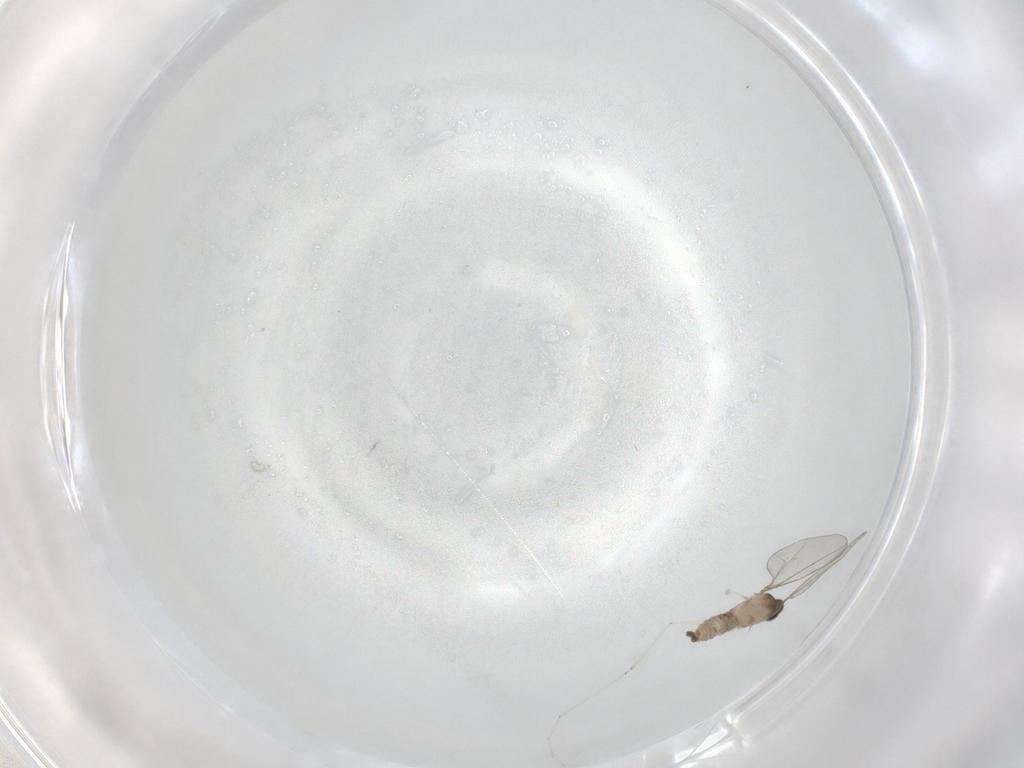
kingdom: Animalia
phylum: Arthropoda
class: Insecta
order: Diptera
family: Cecidomyiidae
